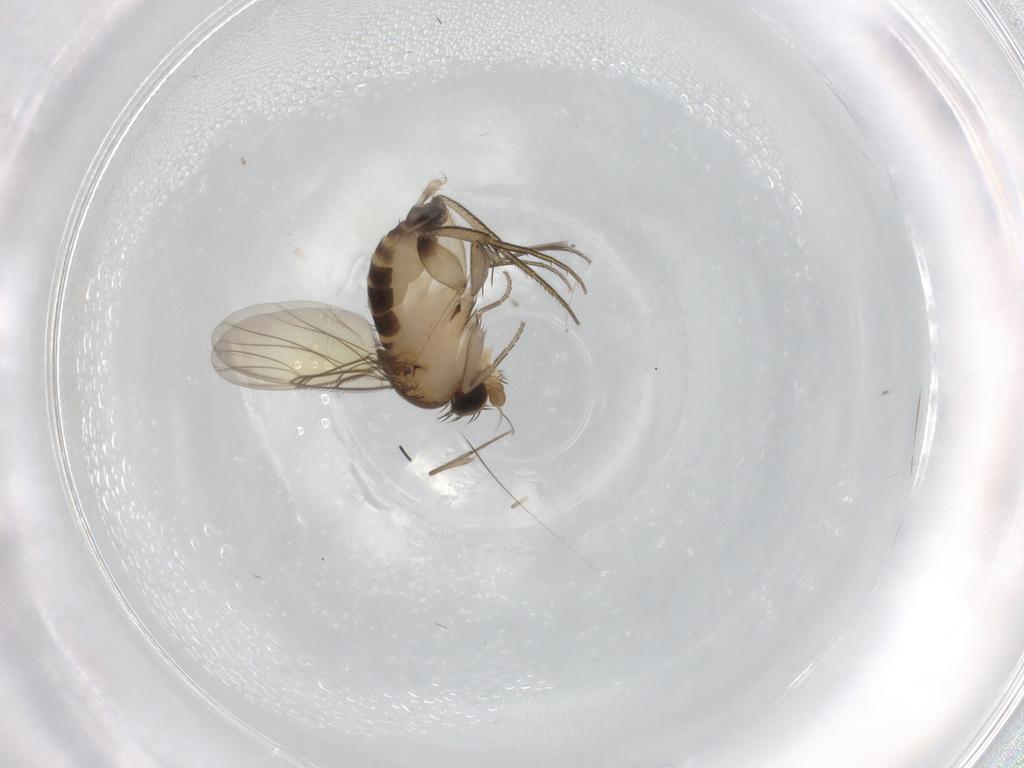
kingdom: Animalia
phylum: Arthropoda
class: Insecta
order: Diptera
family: Phoridae
